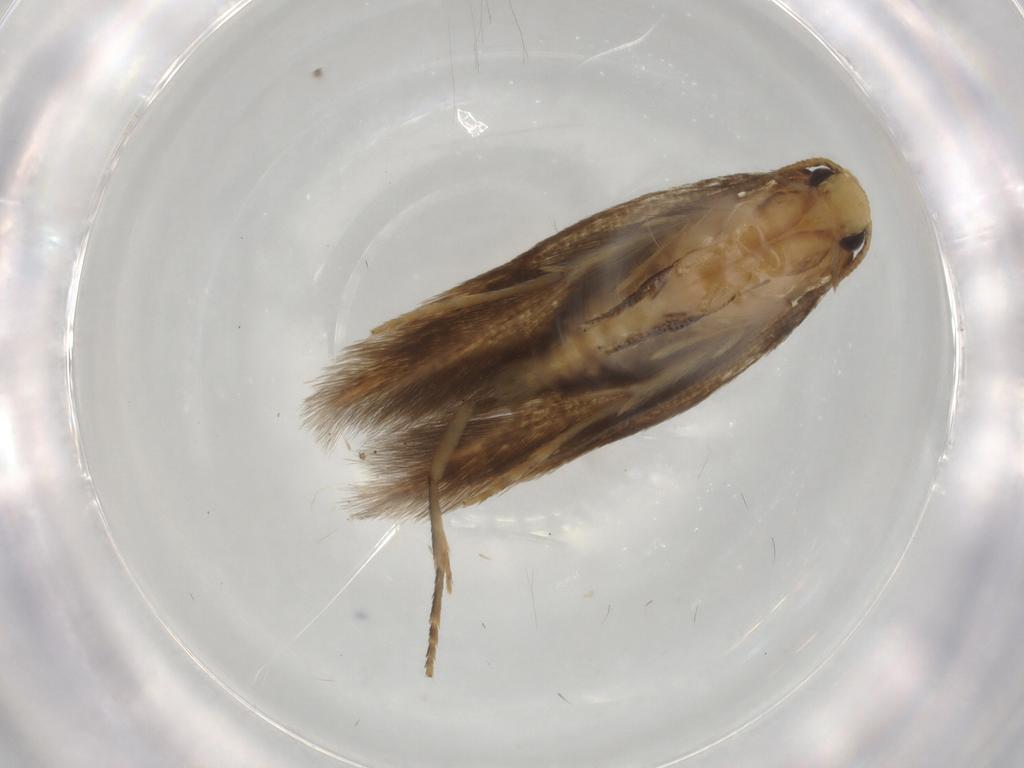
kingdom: Animalia
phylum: Arthropoda
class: Insecta
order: Lepidoptera
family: Tineidae
